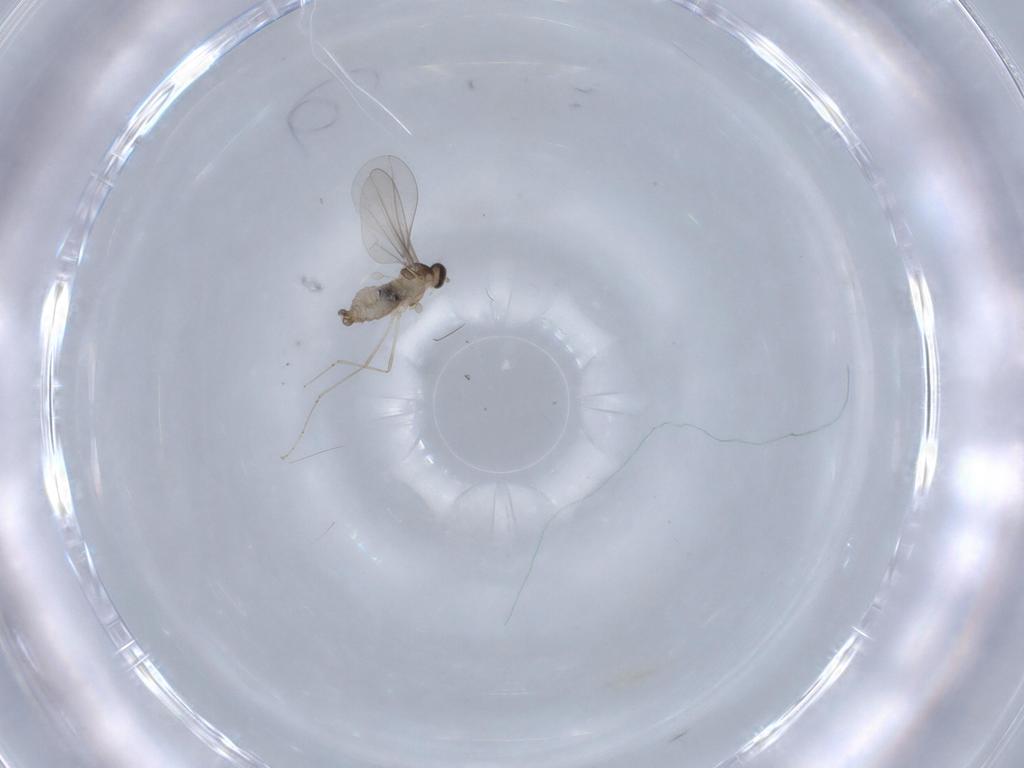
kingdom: Animalia
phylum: Arthropoda
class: Insecta
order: Diptera
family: Cecidomyiidae
